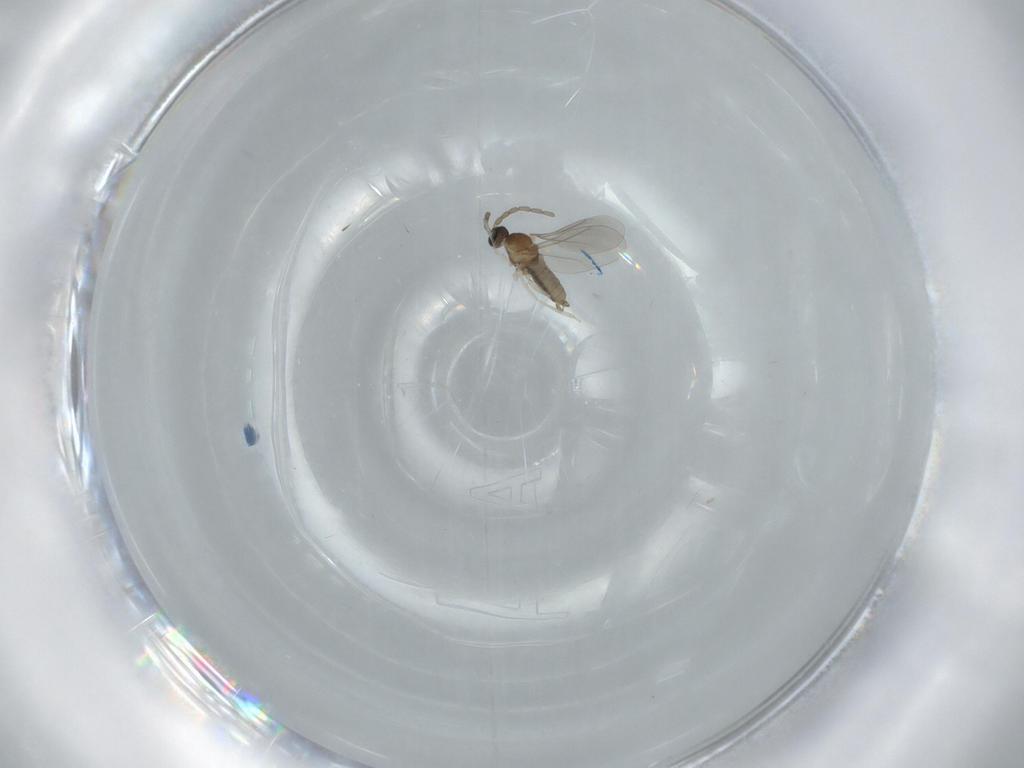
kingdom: Animalia
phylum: Arthropoda
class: Insecta
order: Diptera
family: Cecidomyiidae
